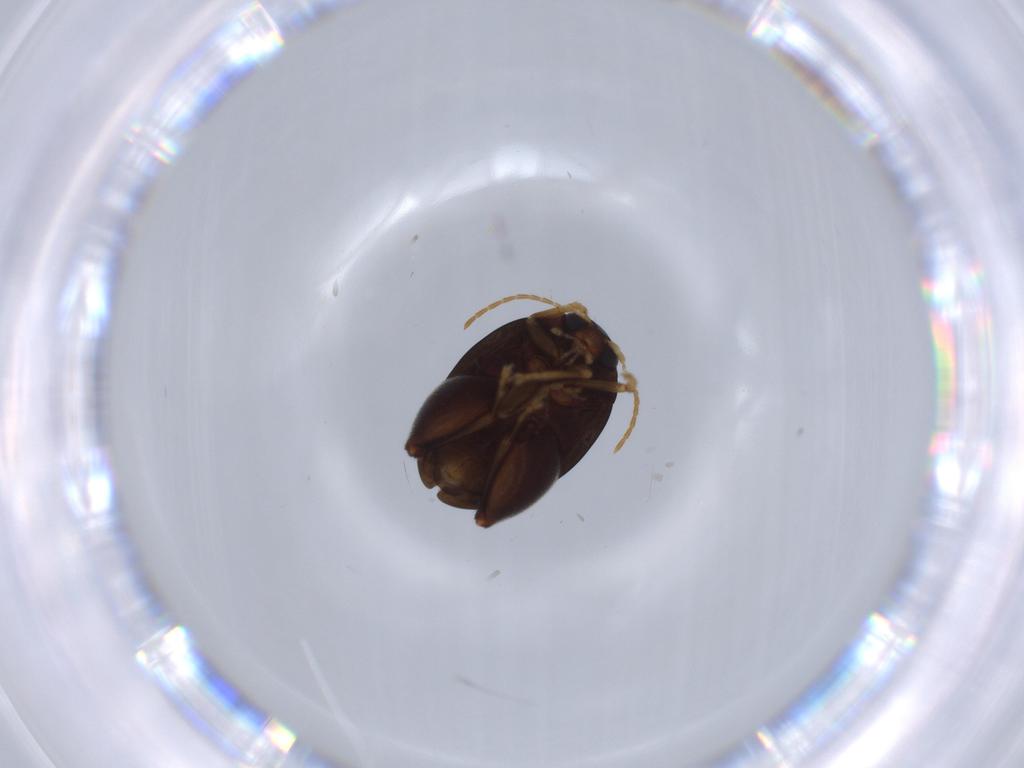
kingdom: Animalia
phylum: Arthropoda
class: Insecta
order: Coleoptera
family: Chrysomelidae
